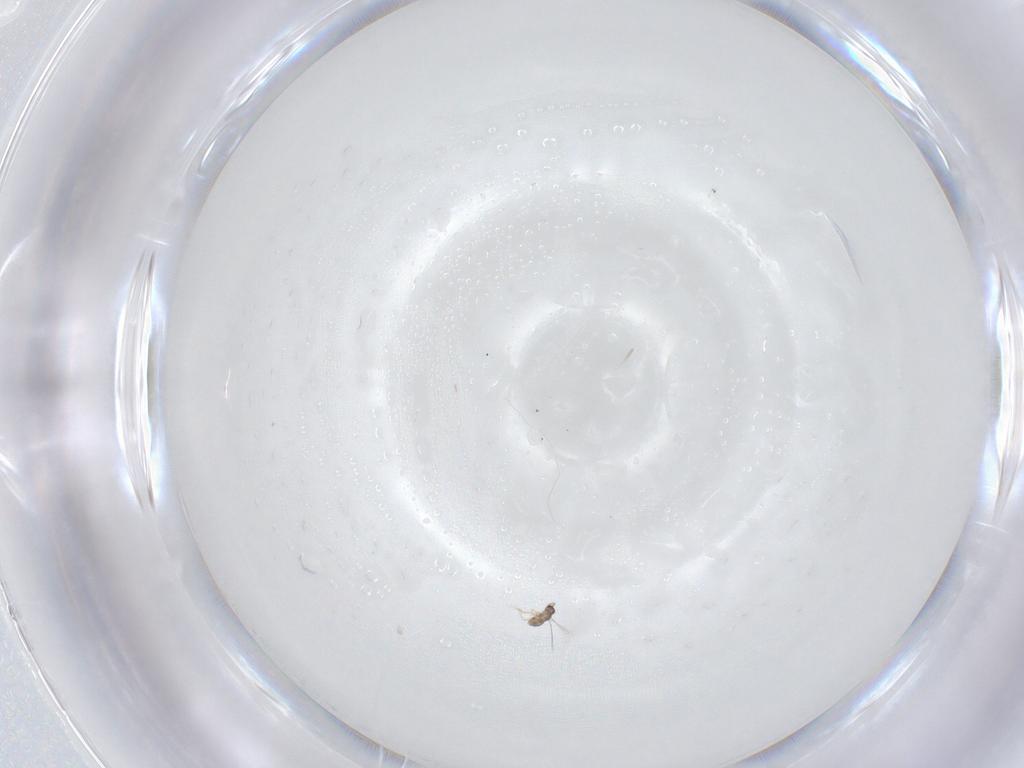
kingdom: Animalia
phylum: Arthropoda
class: Insecta
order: Hymenoptera
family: Mymaridae
